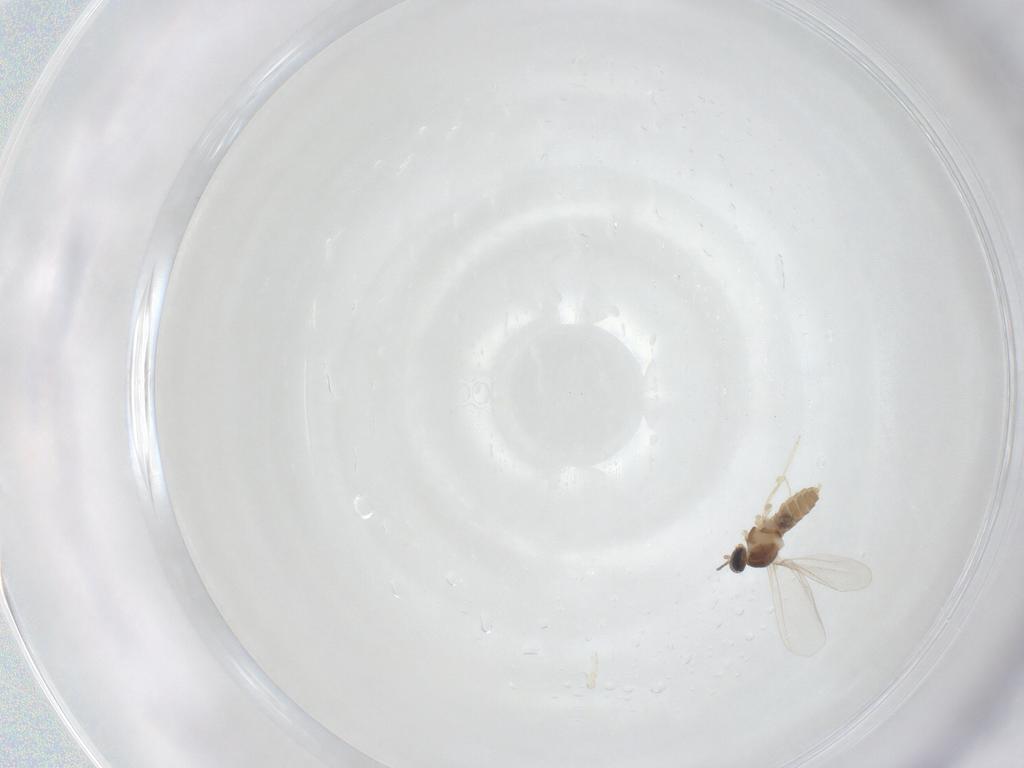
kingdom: Animalia
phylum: Arthropoda
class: Insecta
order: Diptera
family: Cecidomyiidae
